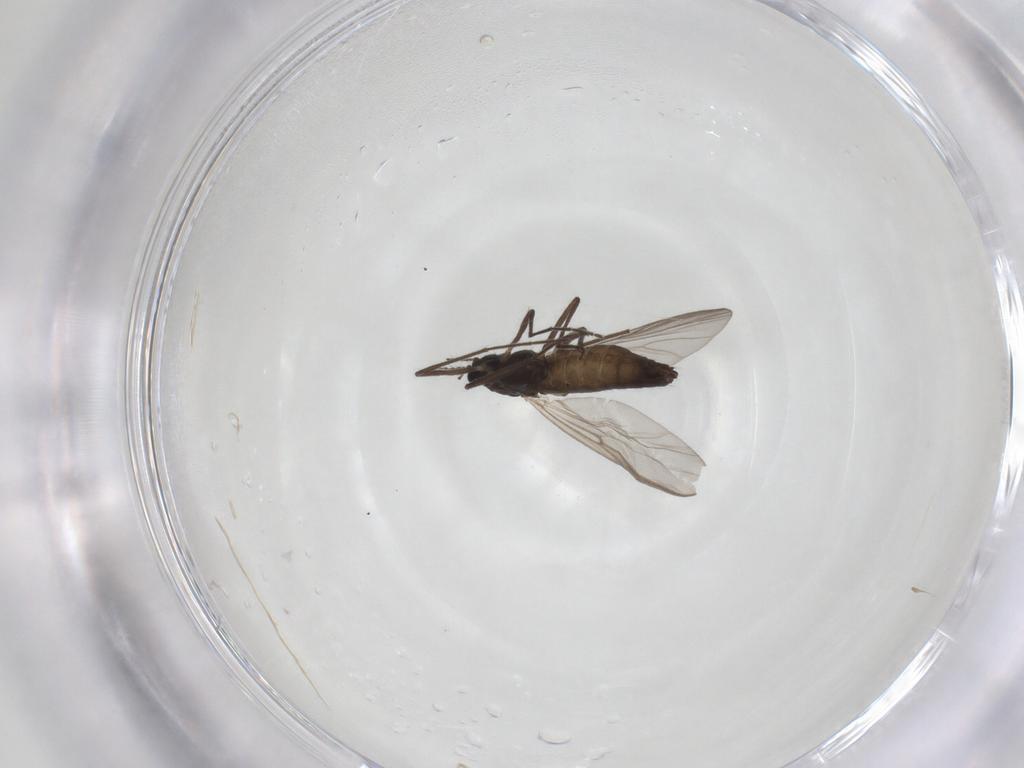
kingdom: Animalia
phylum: Arthropoda
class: Insecta
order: Diptera
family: Chironomidae
